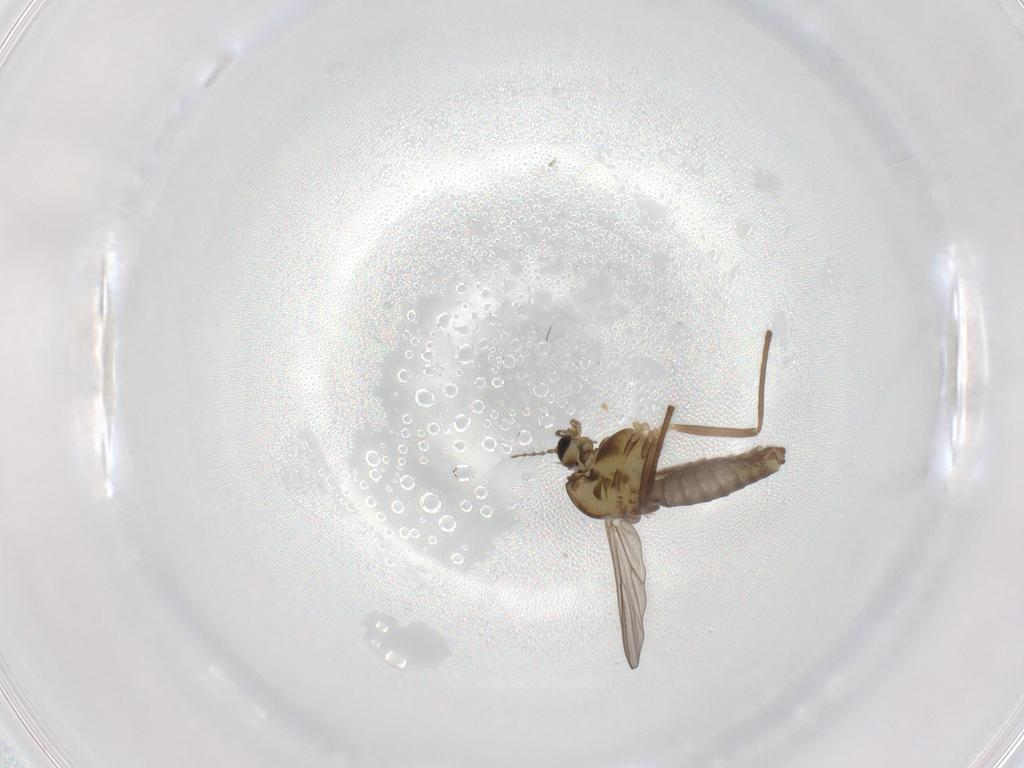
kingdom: Animalia
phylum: Arthropoda
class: Insecta
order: Diptera
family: Chironomidae
